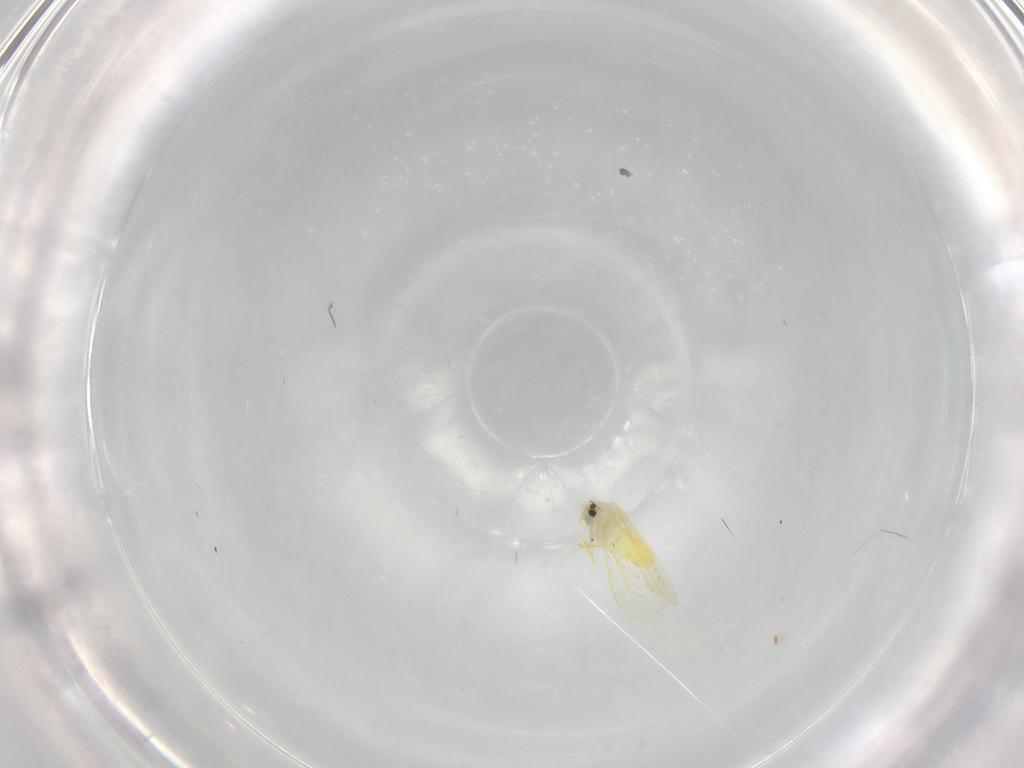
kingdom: Animalia
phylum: Arthropoda
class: Insecta
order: Hemiptera
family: Aleyrodidae
